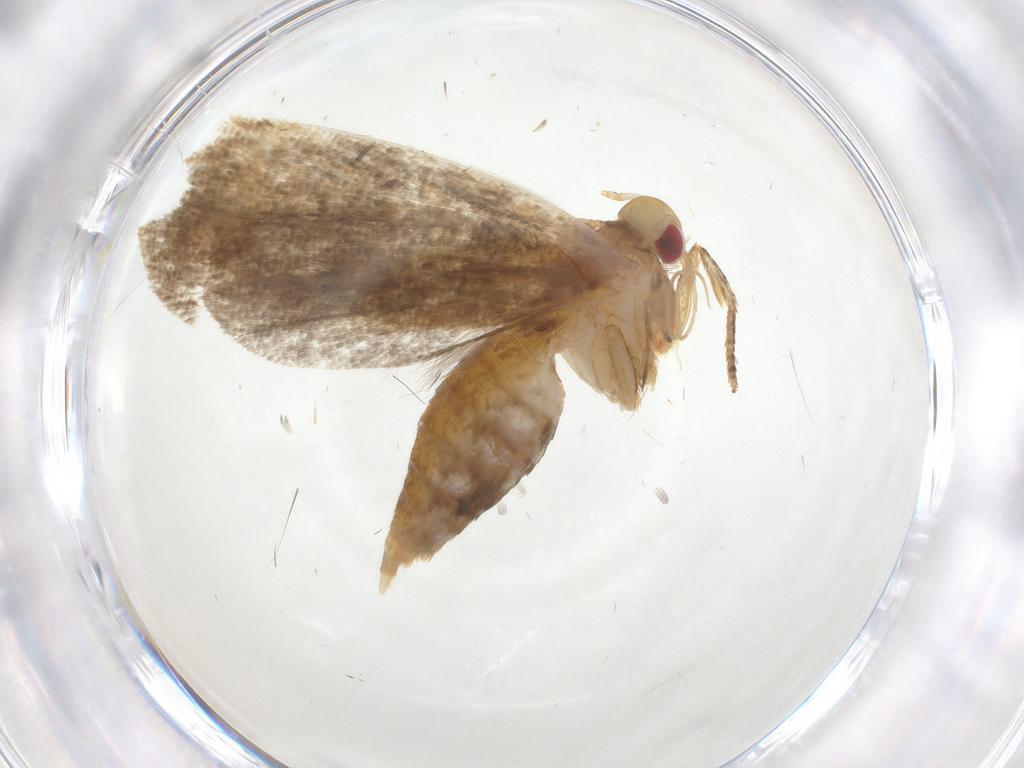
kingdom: Animalia
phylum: Arthropoda
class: Insecta
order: Lepidoptera
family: Oecophoridae
